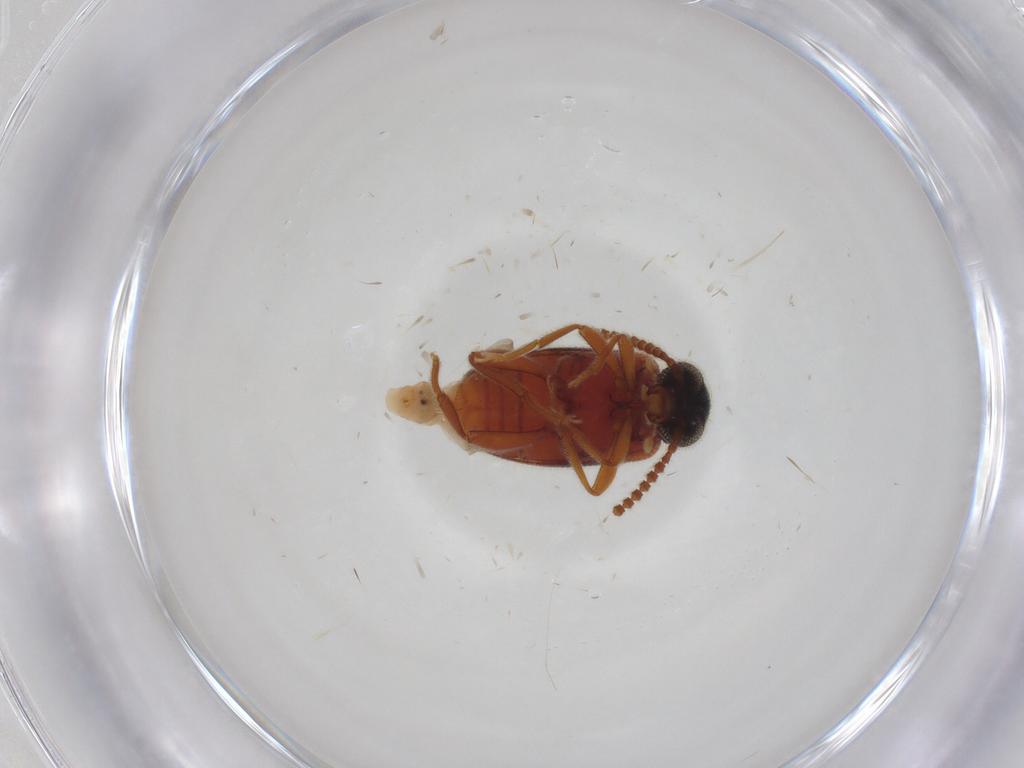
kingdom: Animalia
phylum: Arthropoda
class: Insecta
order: Coleoptera
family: Aderidae
